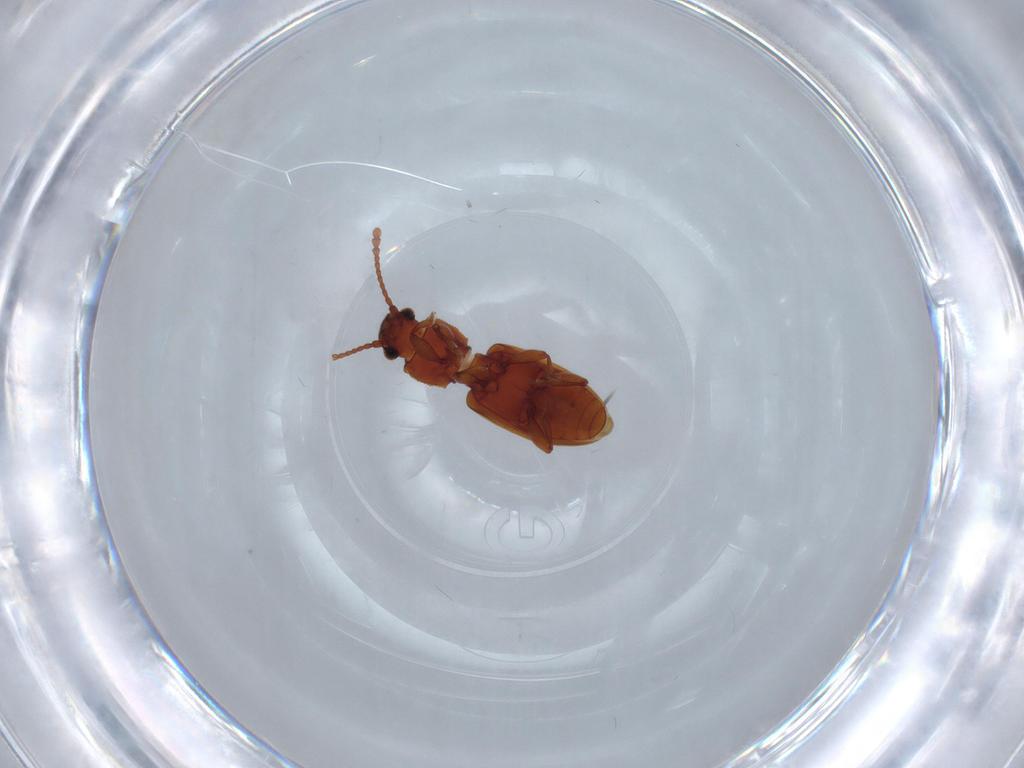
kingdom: Animalia
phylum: Arthropoda
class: Insecta
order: Coleoptera
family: Silvanidae
